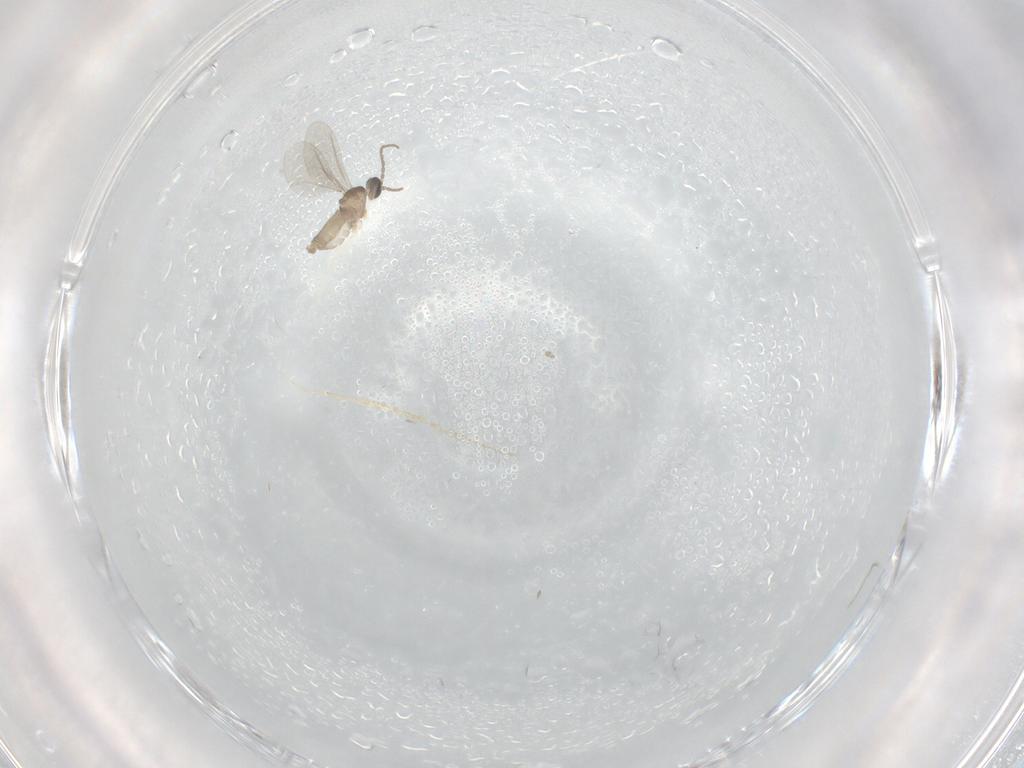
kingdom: Animalia
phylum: Arthropoda
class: Insecta
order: Diptera
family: Cecidomyiidae
